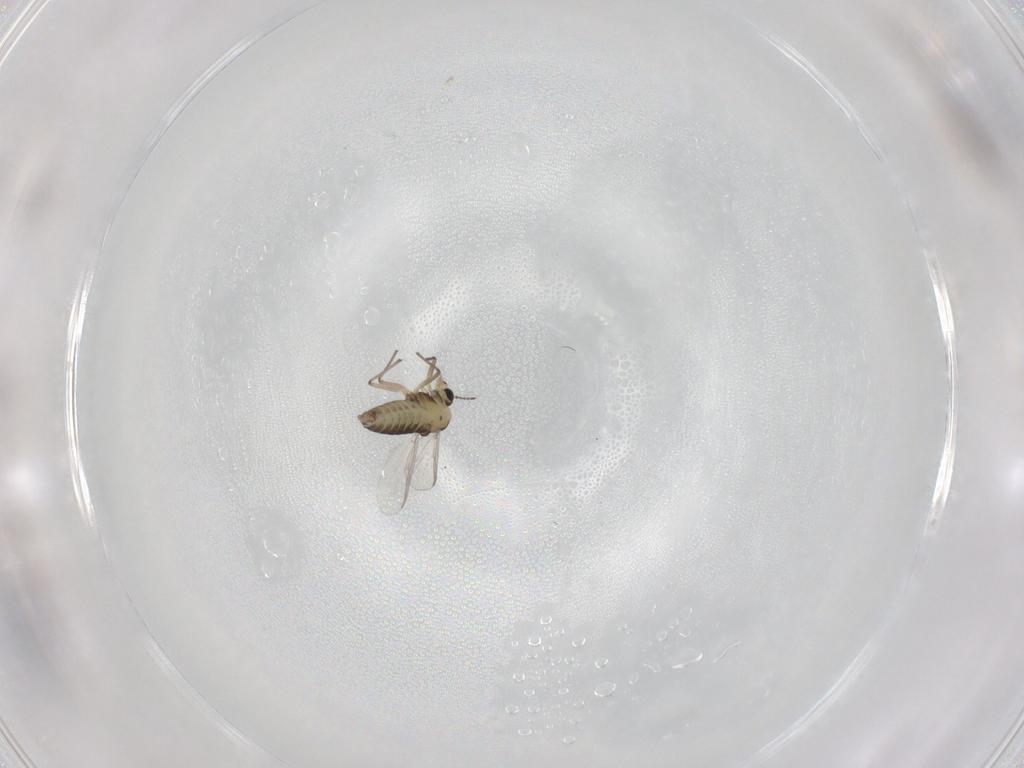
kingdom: Animalia
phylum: Arthropoda
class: Insecta
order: Diptera
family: Chironomidae
